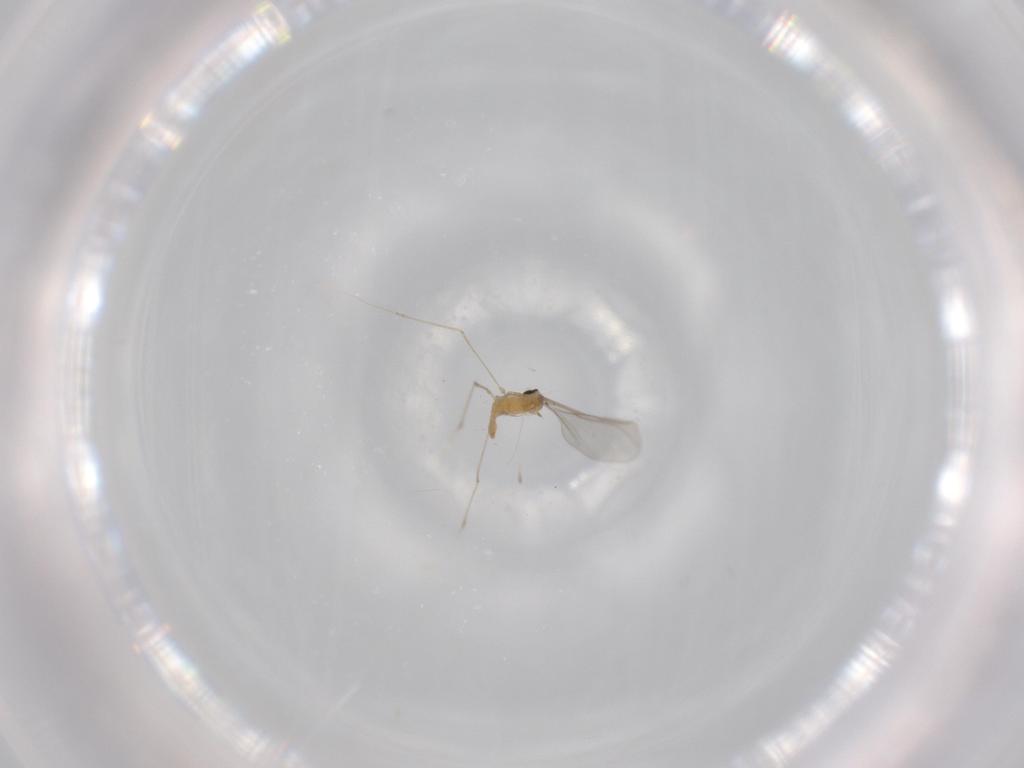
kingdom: Animalia
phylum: Arthropoda
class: Insecta
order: Diptera
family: Cecidomyiidae
